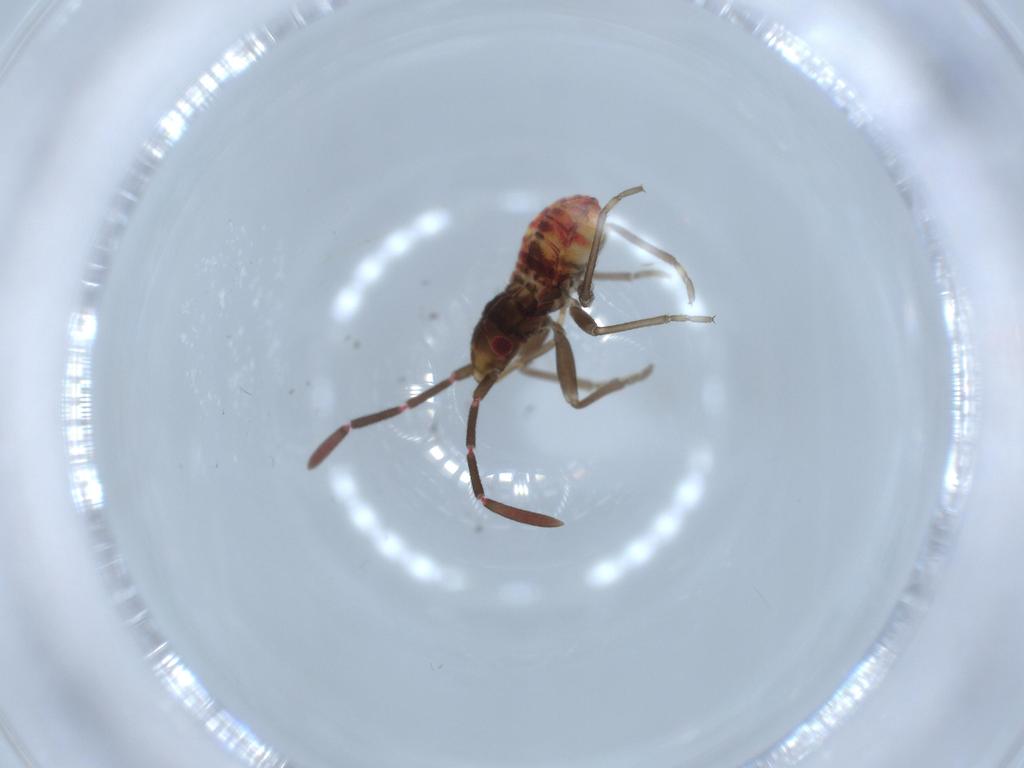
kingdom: Animalia
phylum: Arthropoda
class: Insecta
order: Hemiptera
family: Rhyparochromidae
